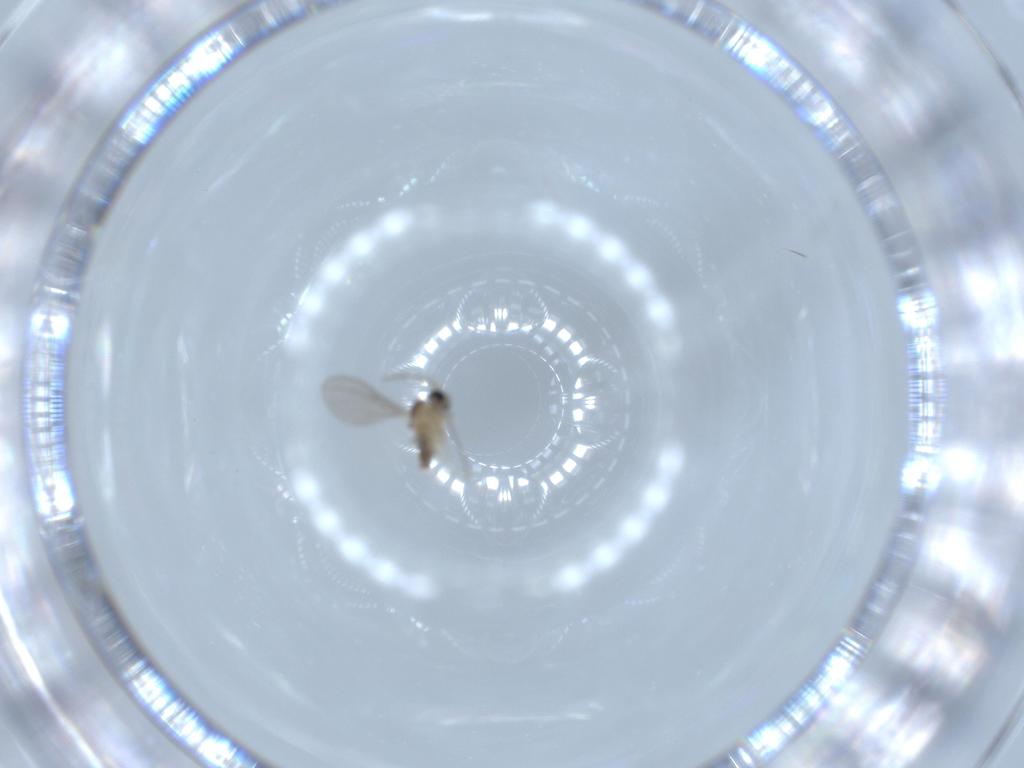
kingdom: Animalia
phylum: Arthropoda
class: Insecta
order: Diptera
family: Cecidomyiidae
